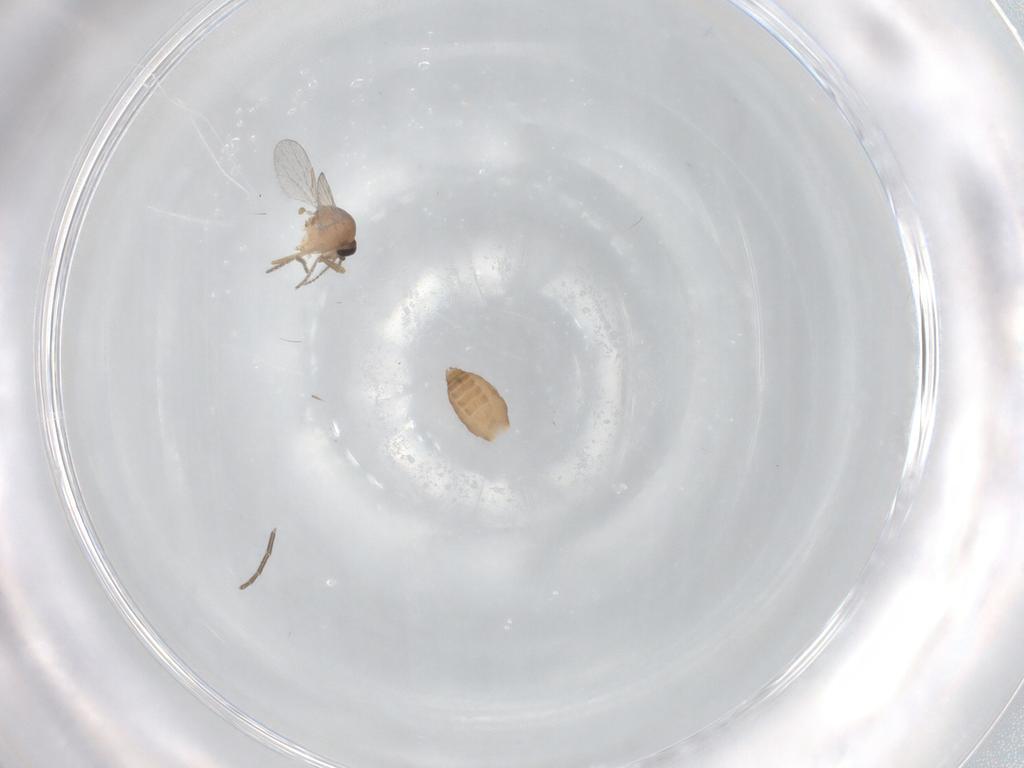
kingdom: Animalia
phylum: Arthropoda
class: Insecta
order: Diptera
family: Ceratopogonidae
